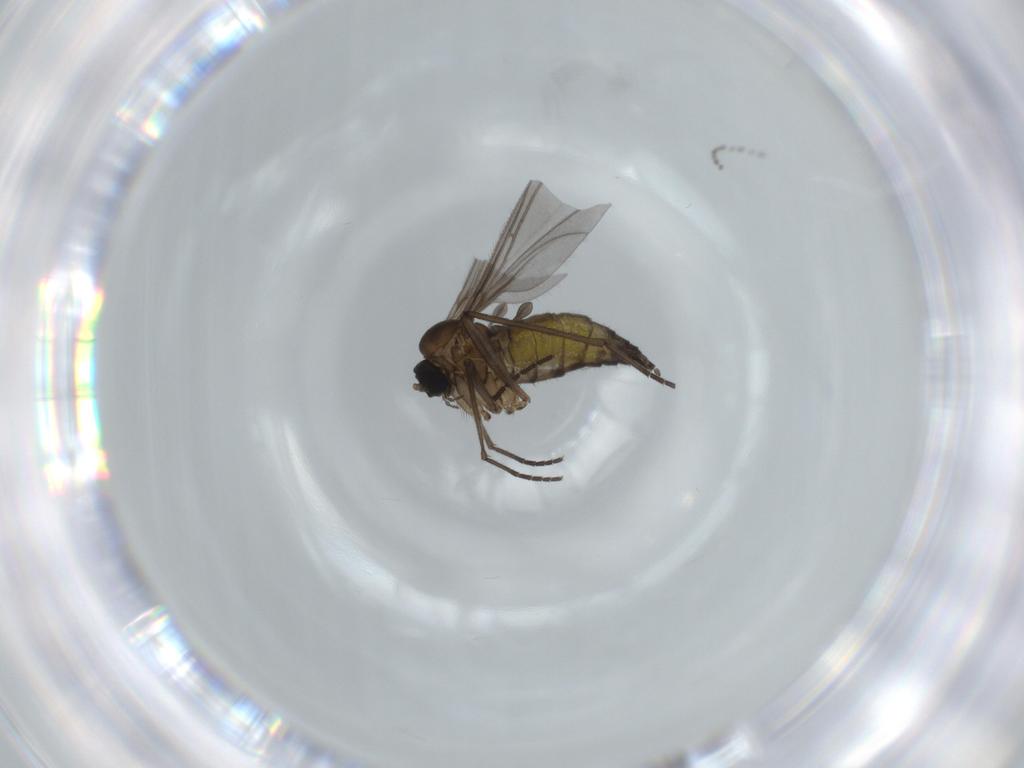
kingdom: Animalia
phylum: Arthropoda
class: Insecta
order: Diptera
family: Sciaridae
